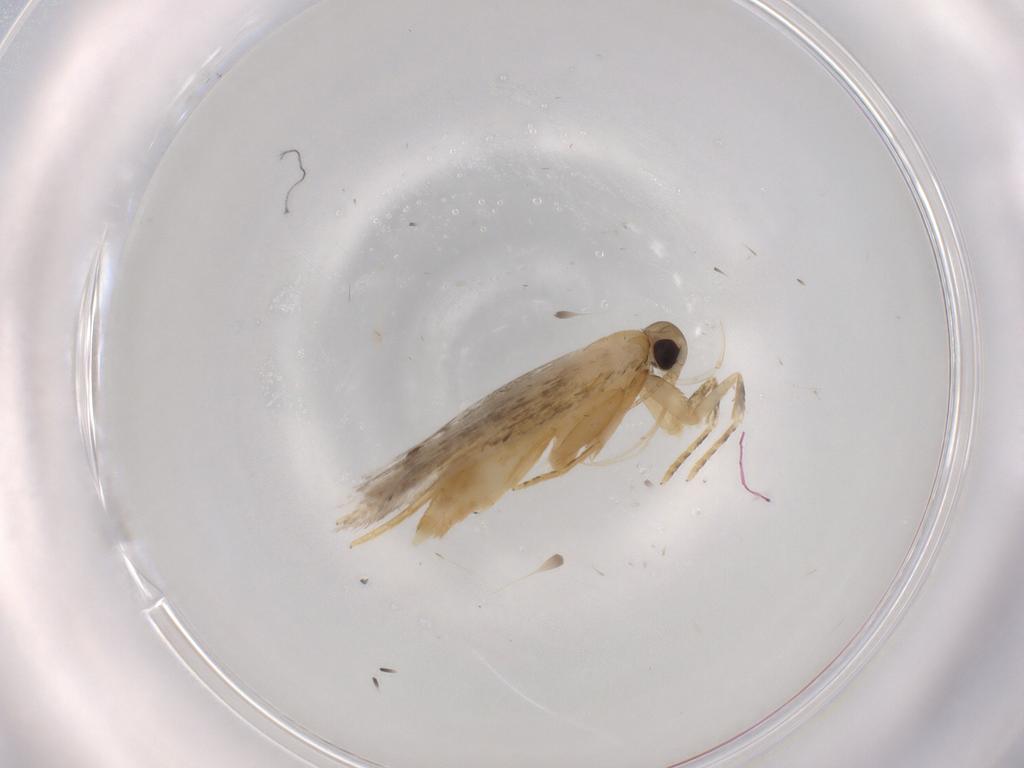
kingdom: Animalia
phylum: Arthropoda
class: Insecta
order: Lepidoptera
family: Autostichidae
